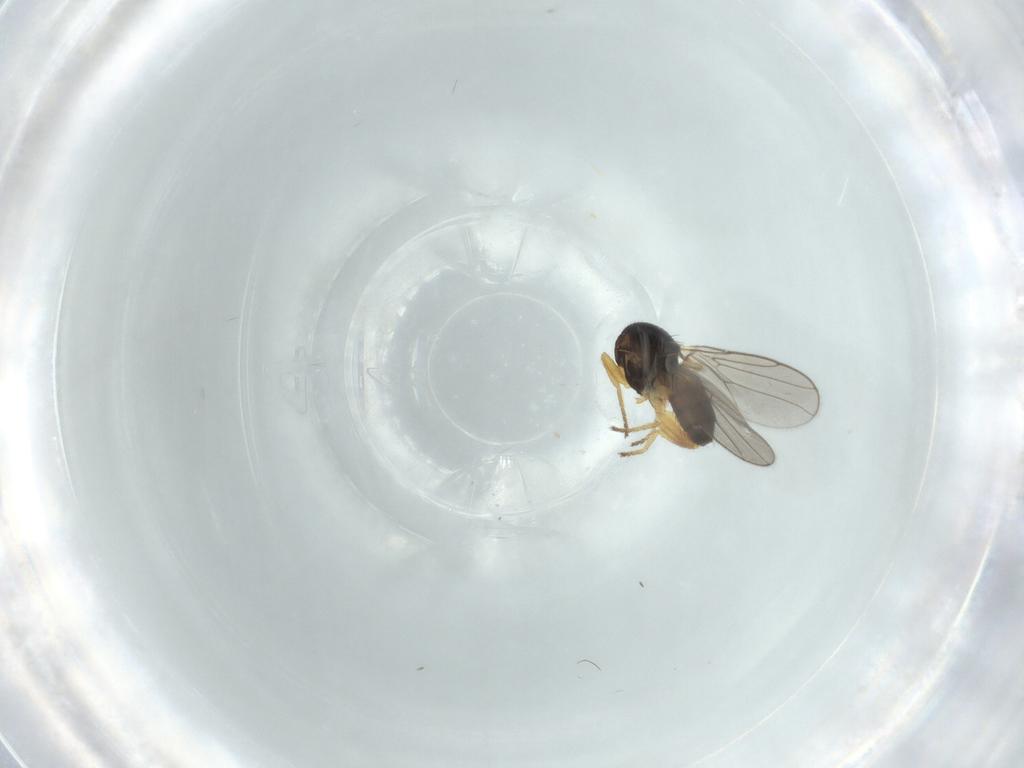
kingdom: Animalia
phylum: Arthropoda
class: Insecta
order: Diptera
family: Chloropidae
